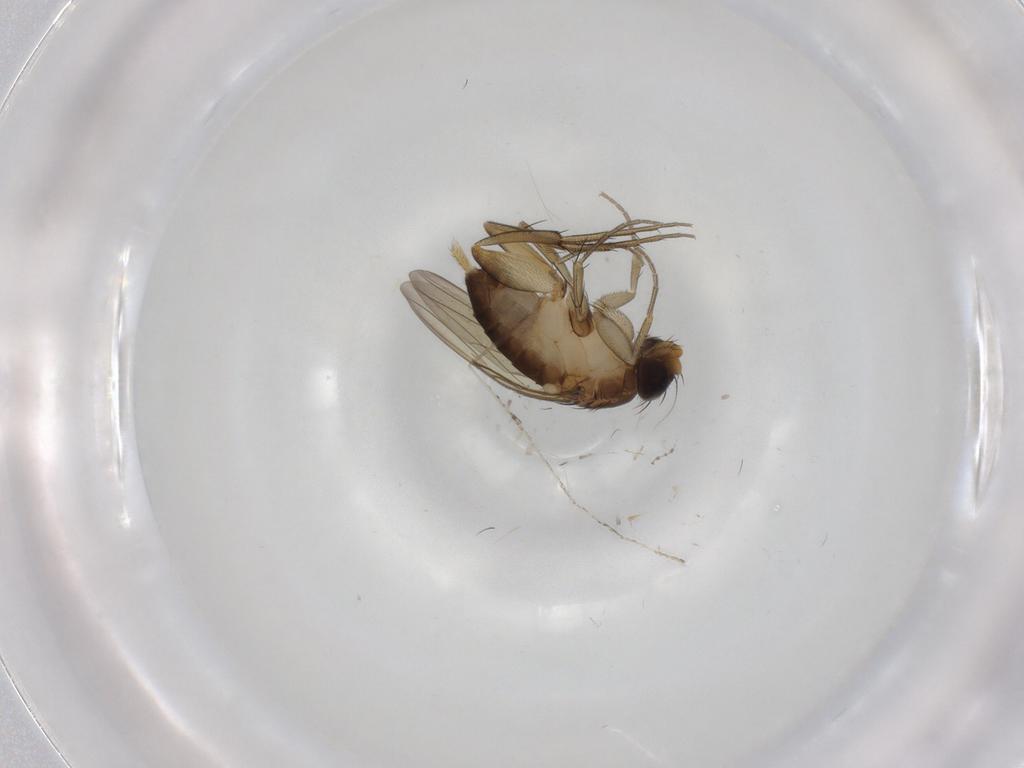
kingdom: Animalia
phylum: Arthropoda
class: Insecta
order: Diptera
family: Phoridae
